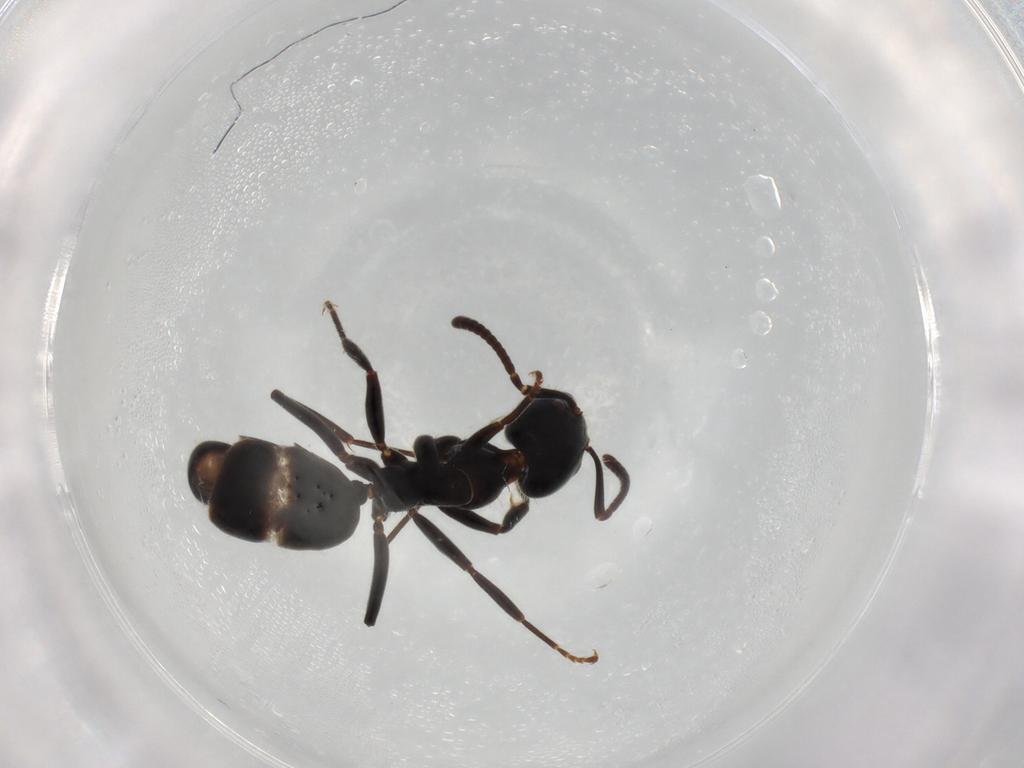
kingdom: Animalia
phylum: Arthropoda
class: Insecta
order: Hymenoptera
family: Formicidae
